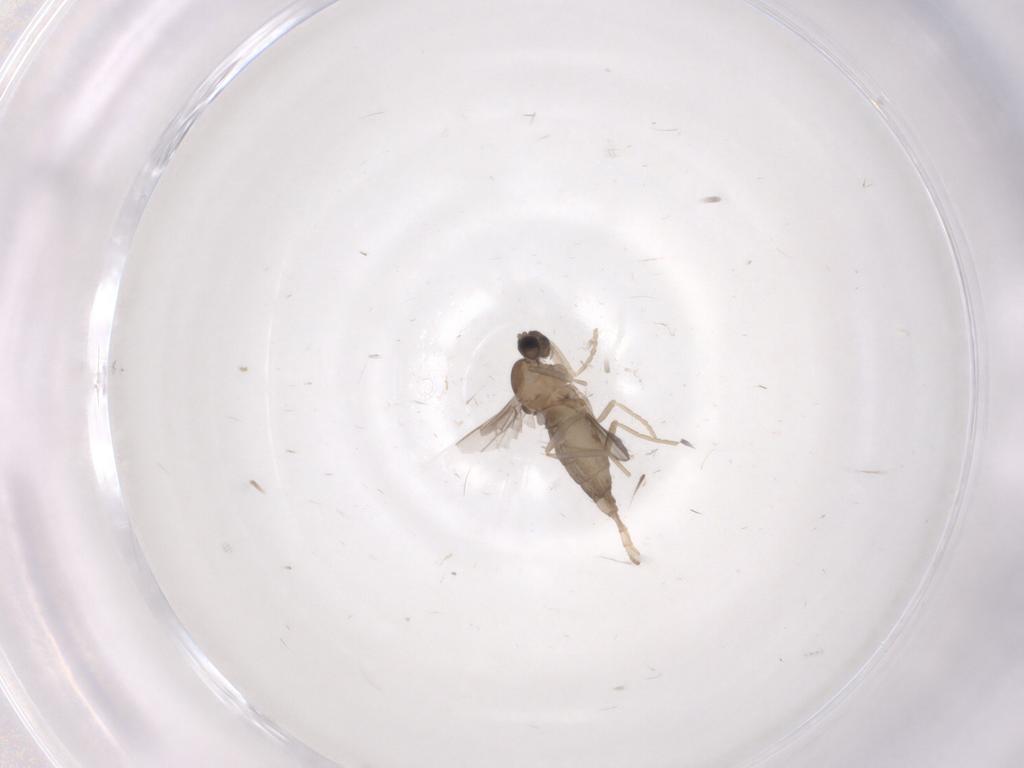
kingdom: Animalia
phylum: Arthropoda
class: Insecta
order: Diptera
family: Cecidomyiidae
